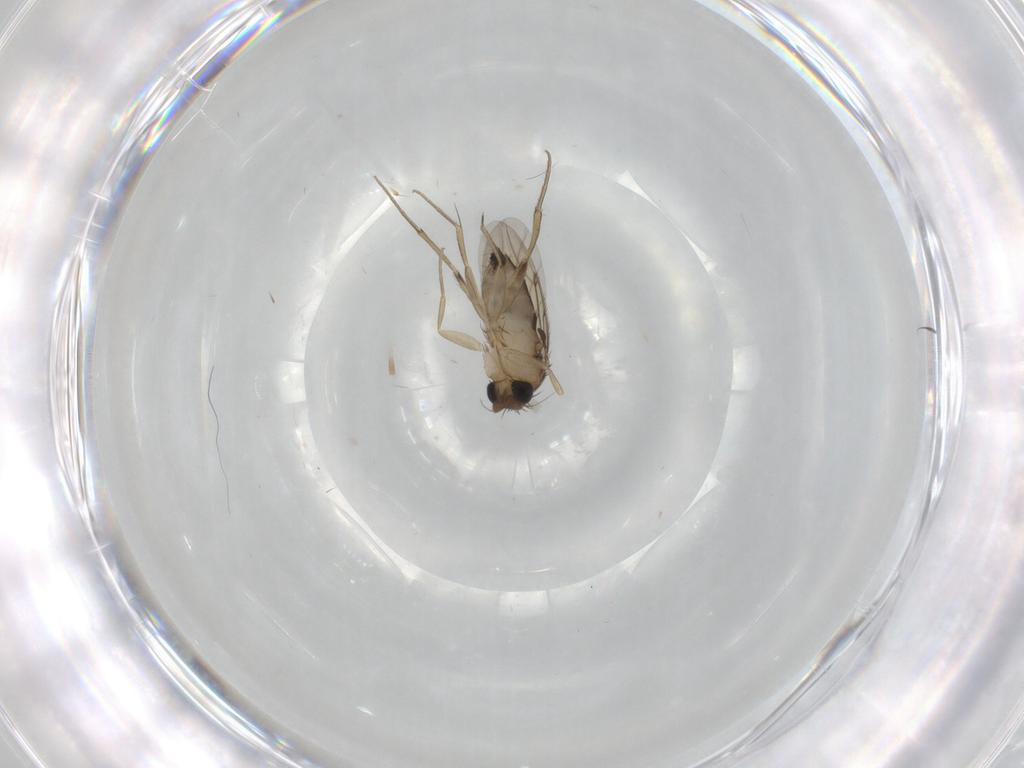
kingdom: Animalia
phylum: Arthropoda
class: Insecta
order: Diptera
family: Phoridae
